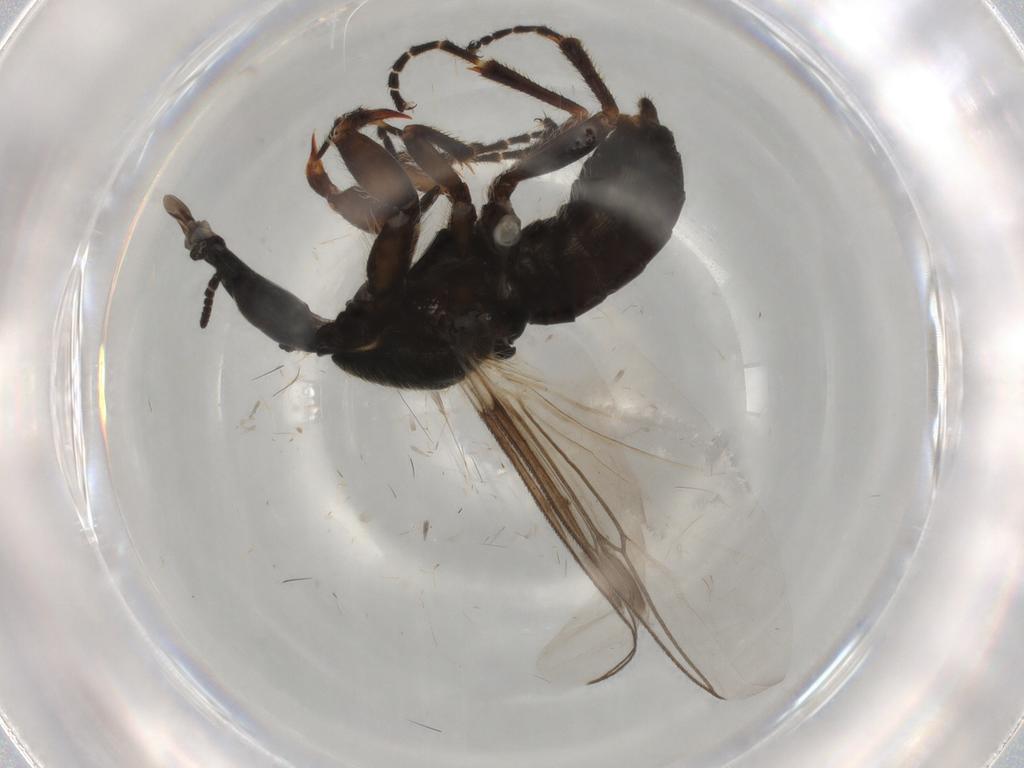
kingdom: Animalia
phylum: Arthropoda
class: Insecta
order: Diptera
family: Bibionidae
